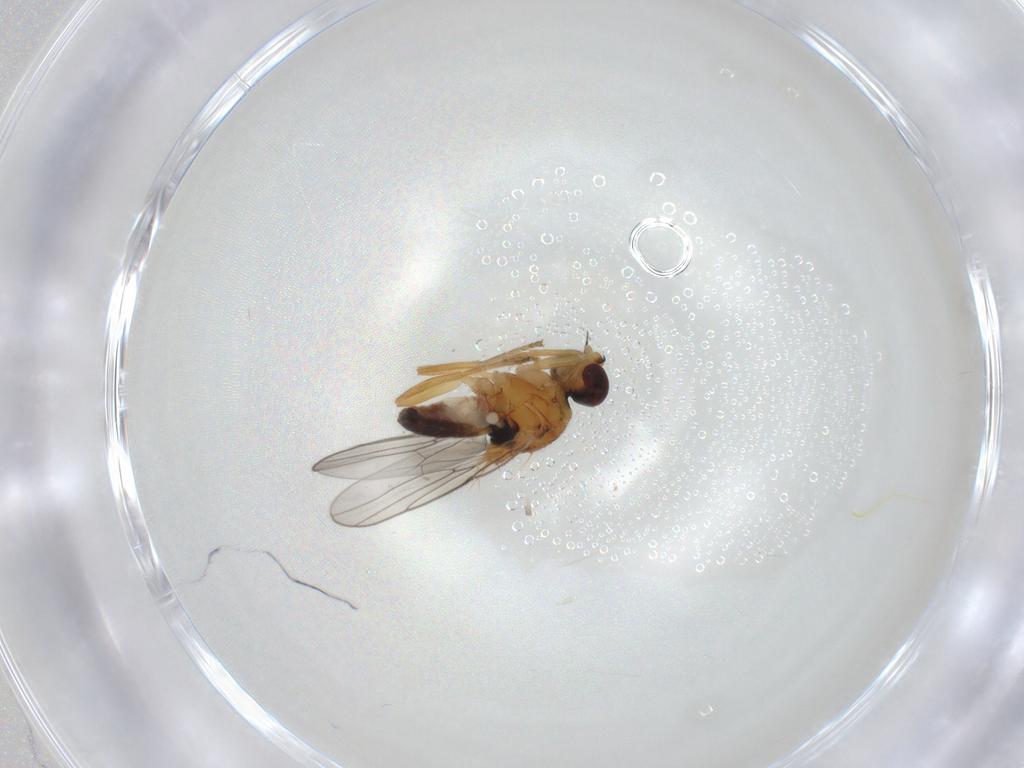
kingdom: Animalia
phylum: Arthropoda
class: Insecta
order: Diptera
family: Chloropidae
